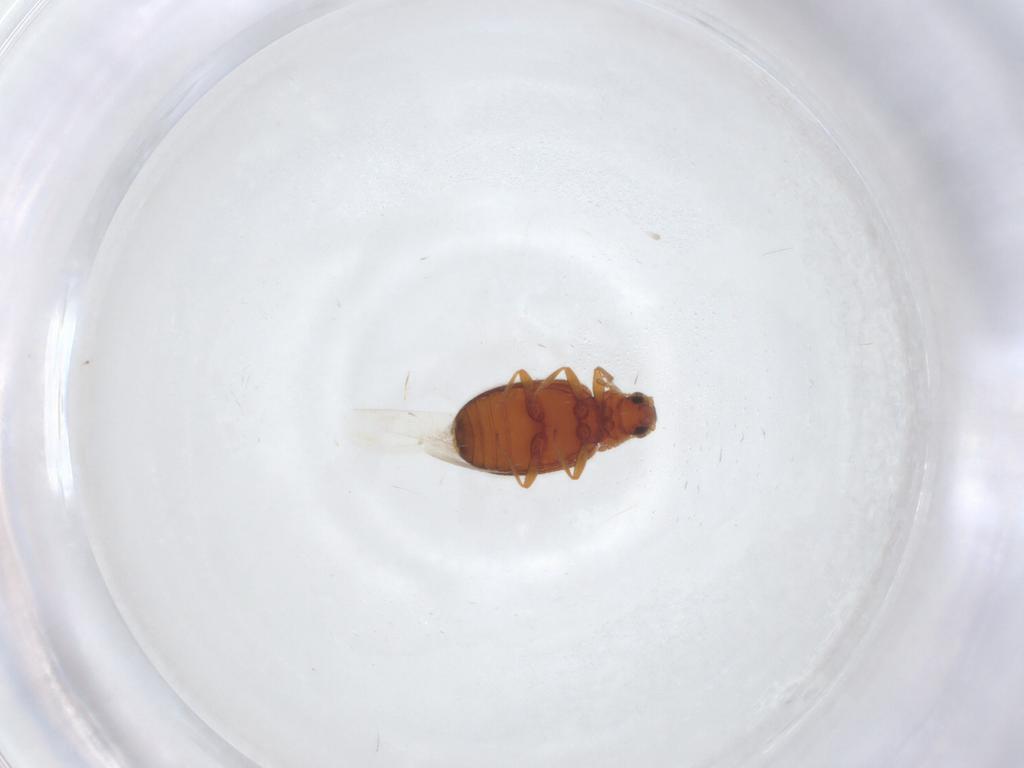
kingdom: Animalia
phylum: Arthropoda
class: Insecta
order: Coleoptera
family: Latridiidae
